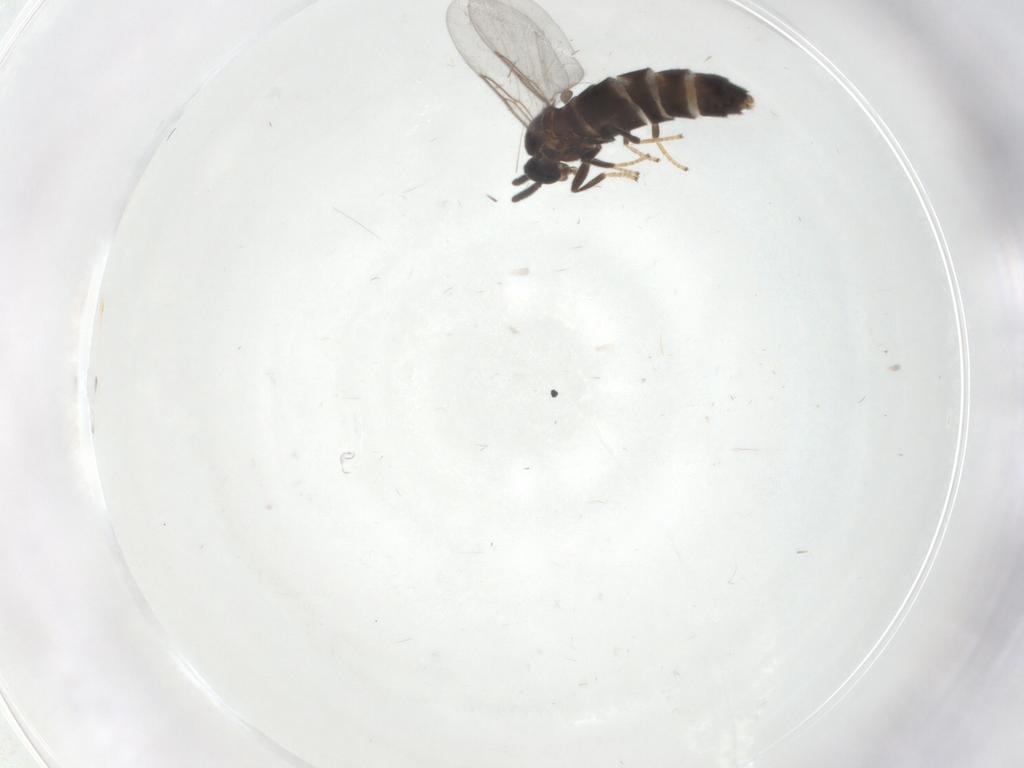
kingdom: Animalia
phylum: Arthropoda
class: Insecta
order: Diptera
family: Scatopsidae
